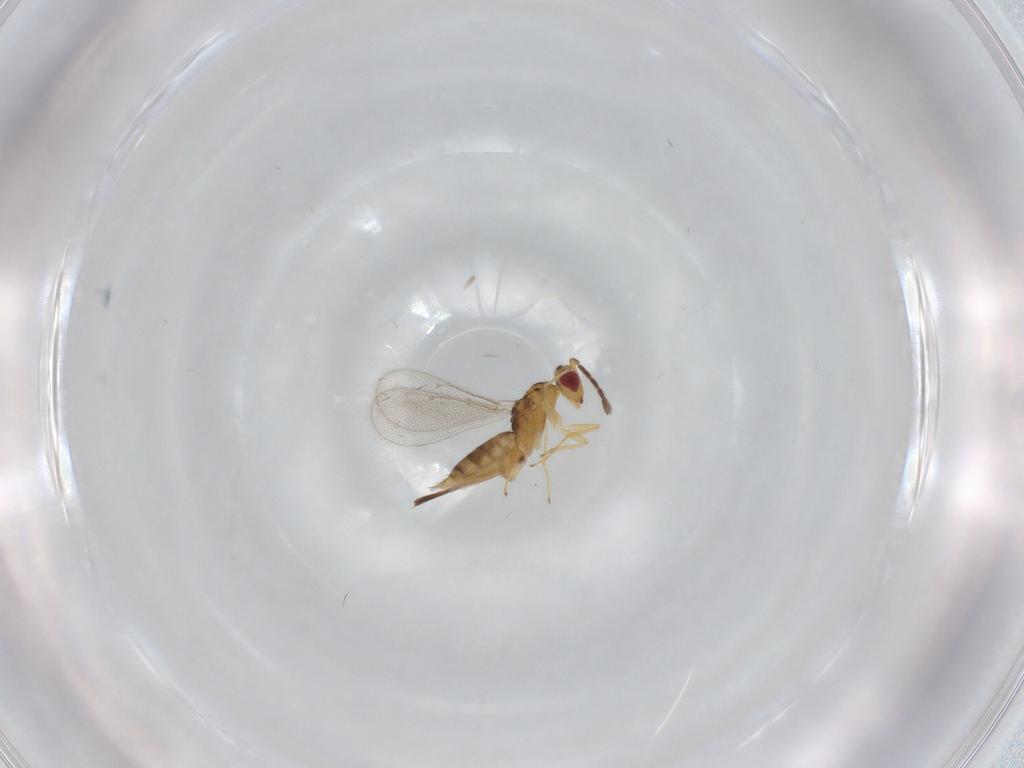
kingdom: Animalia
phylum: Arthropoda
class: Insecta
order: Hymenoptera
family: Eulophidae
